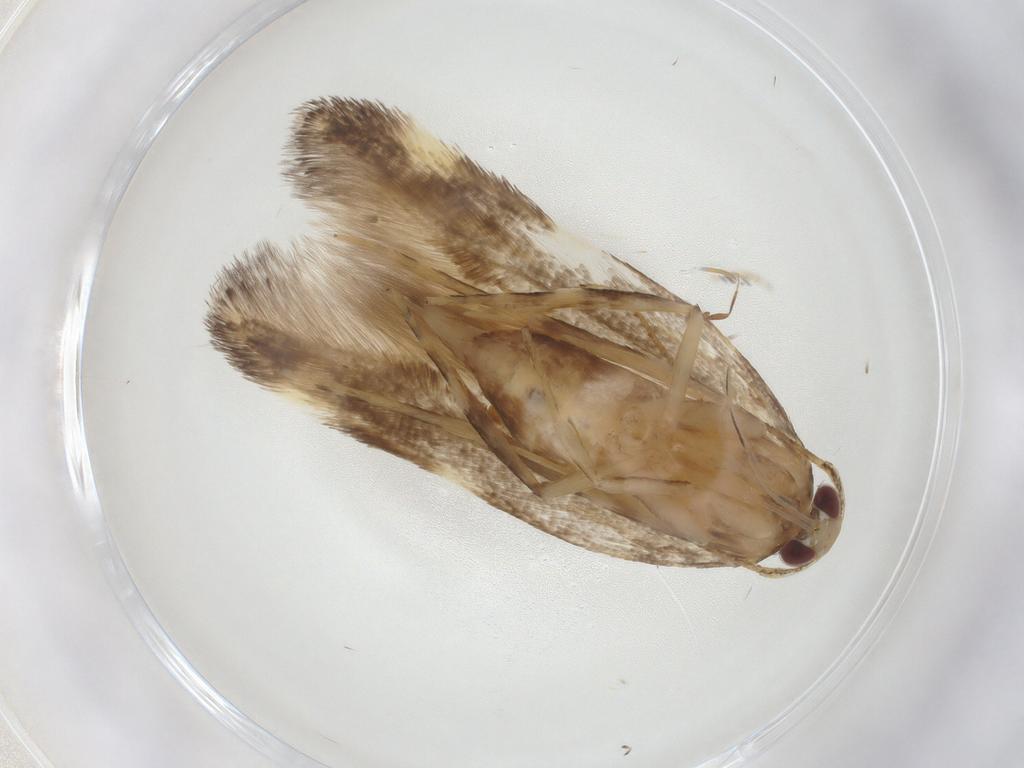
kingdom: Animalia
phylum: Arthropoda
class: Insecta
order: Lepidoptera
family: Cosmopterigidae
